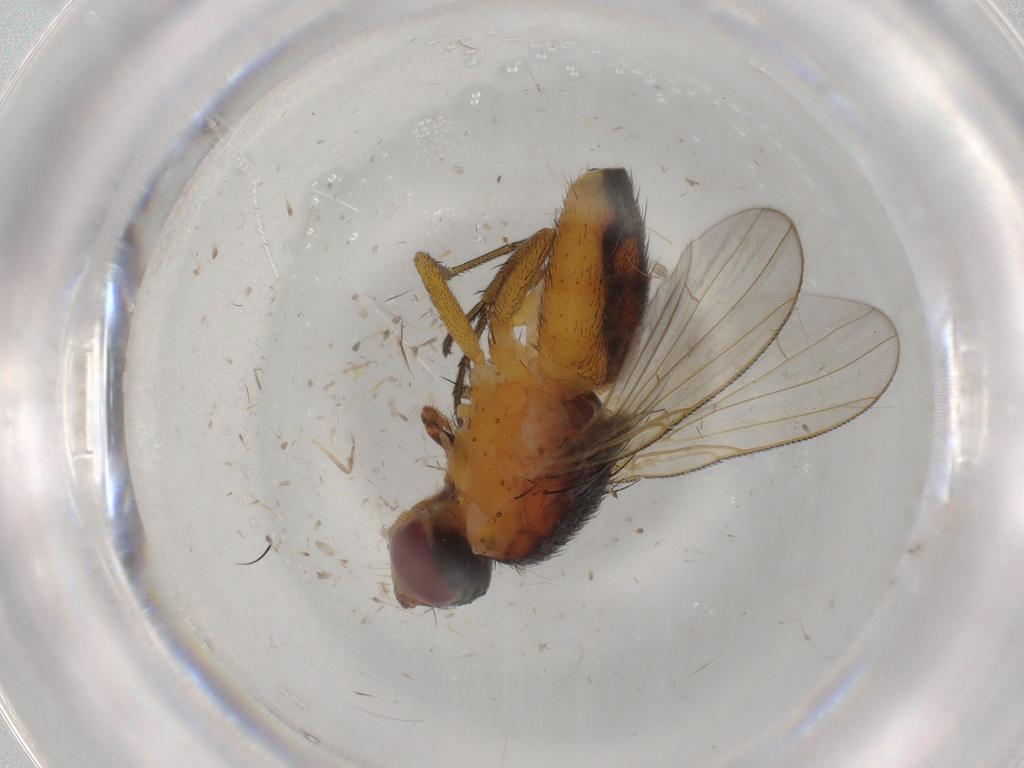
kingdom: Animalia
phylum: Arthropoda
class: Insecta
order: Diptera
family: Muscidae
